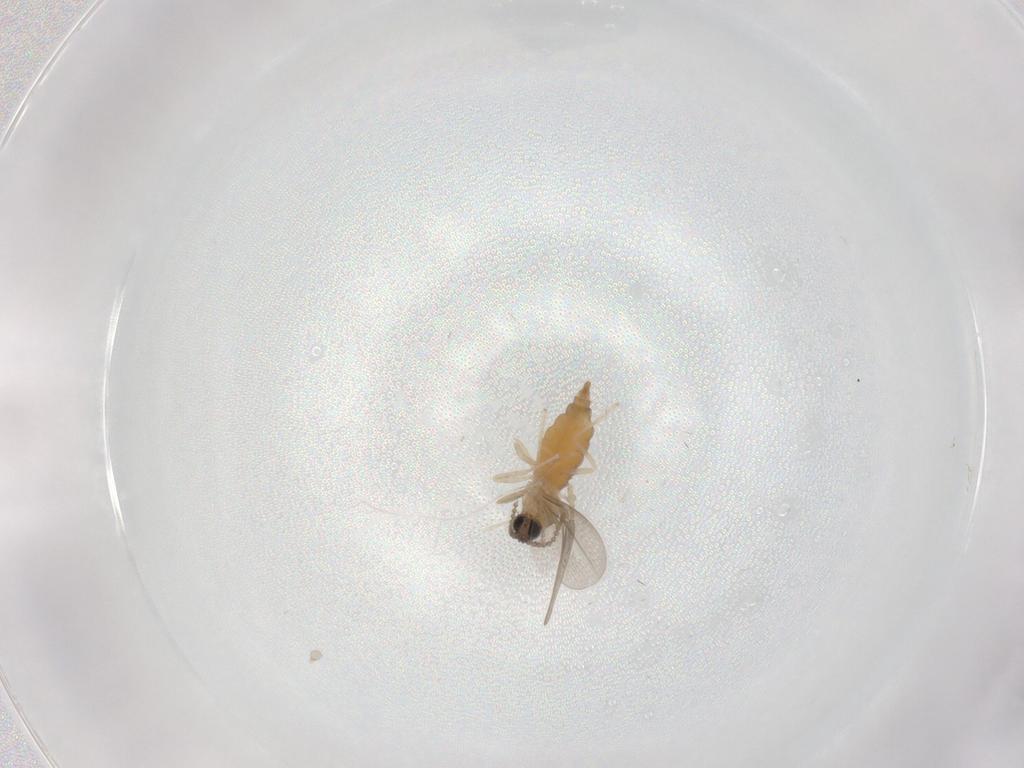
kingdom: Animalia
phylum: Arthropoda
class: Insecta
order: Diptera
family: Cecidomyiidae
